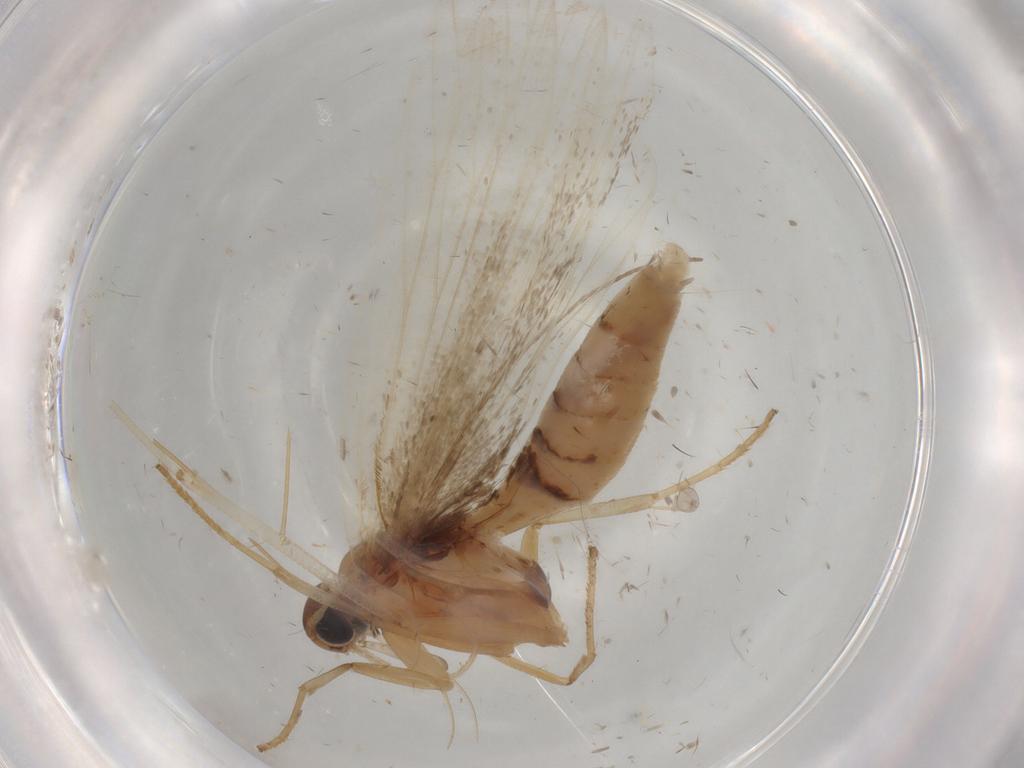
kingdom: Animalia
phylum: Arthropoda
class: Insecta
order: Lepidoptera
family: Gelechiidae
